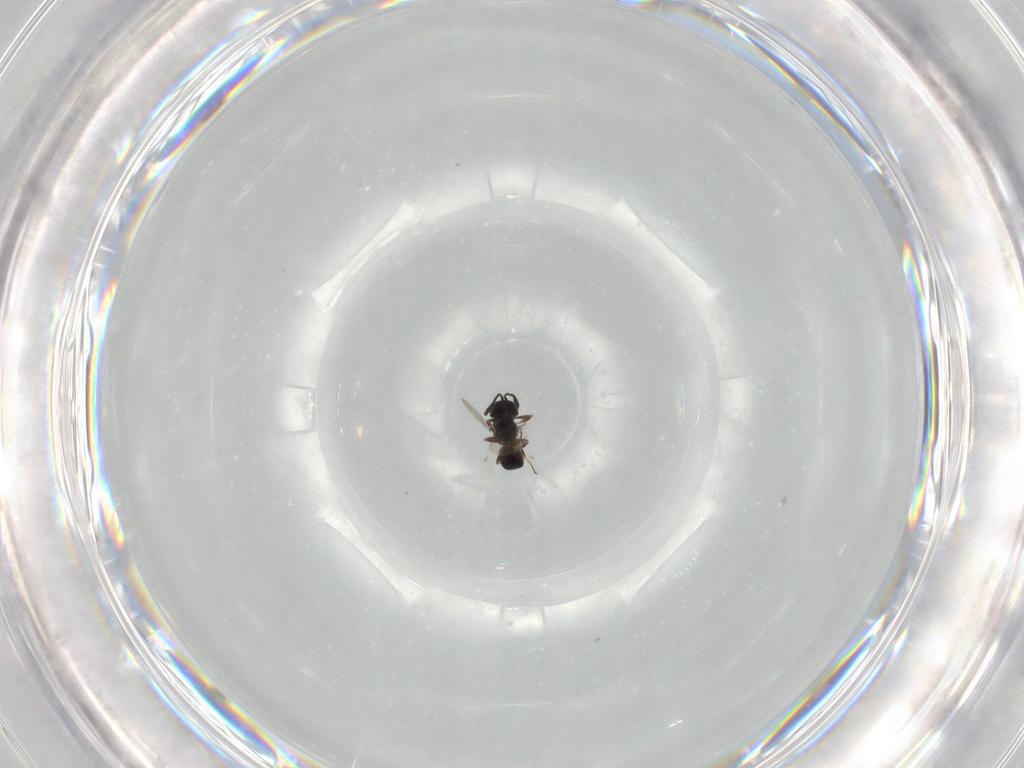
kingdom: Animalia
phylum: Arthropoda
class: Insecta
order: Hymenoptera
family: Scelionidae
